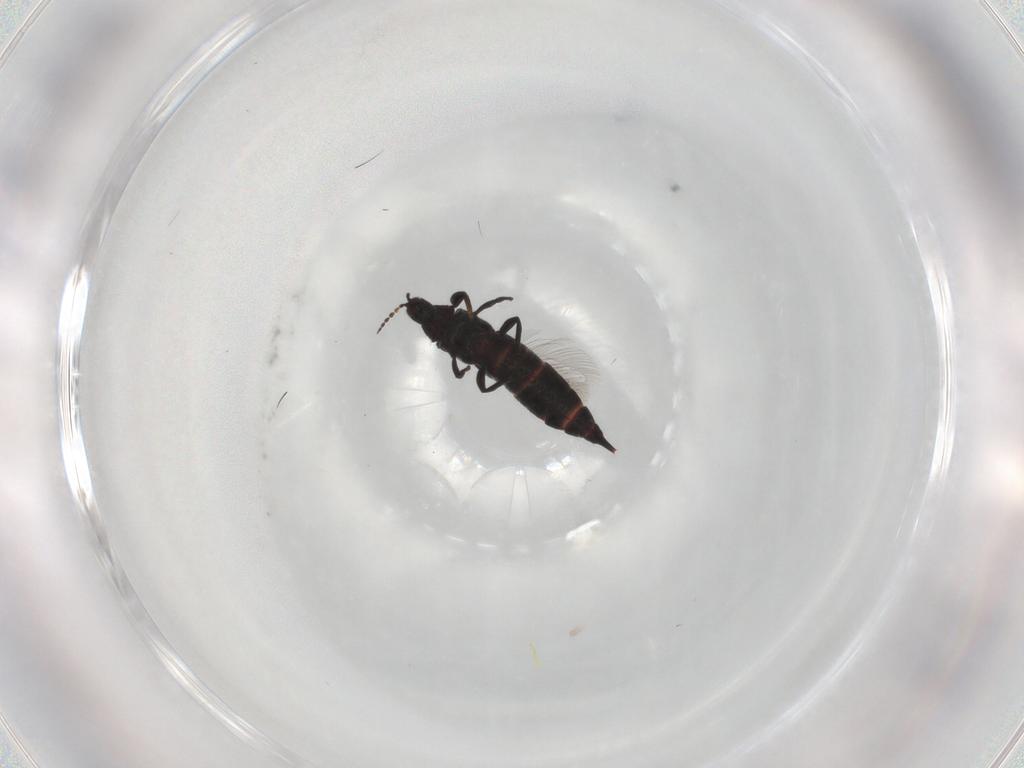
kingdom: Animalia
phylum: Arthropoda
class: Insecta
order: Thysanoptera
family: Phlaeothripidae
